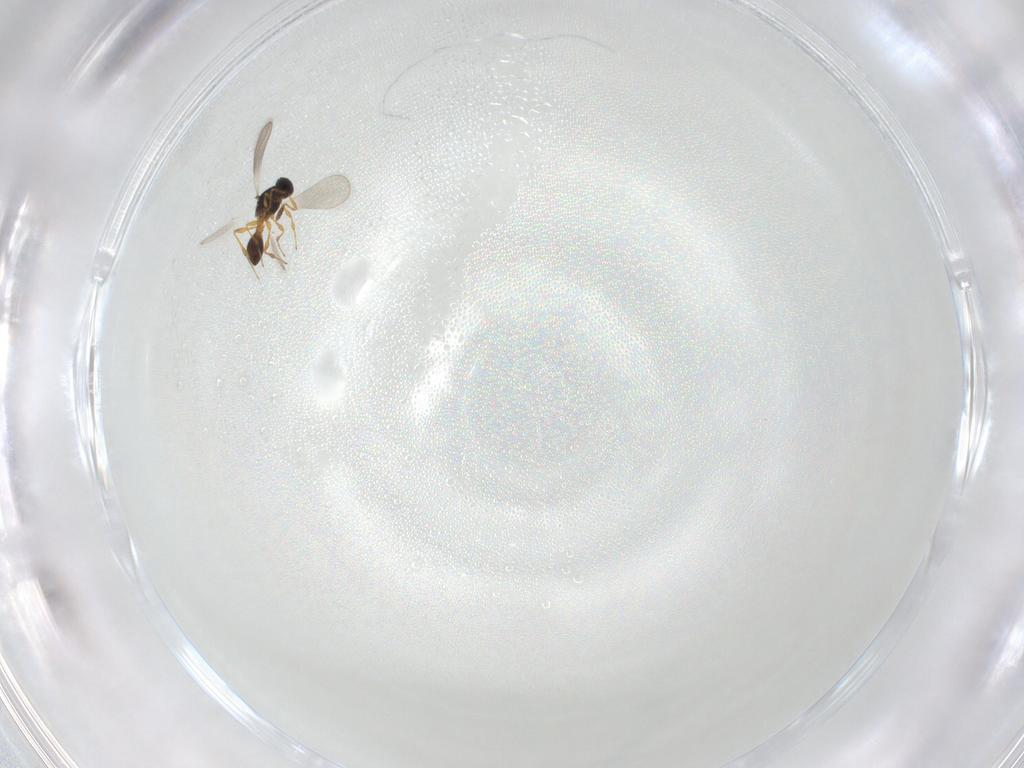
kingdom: Animalia
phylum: Arthropoda
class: Insecta
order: Hymenoptera
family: Platygastridae
